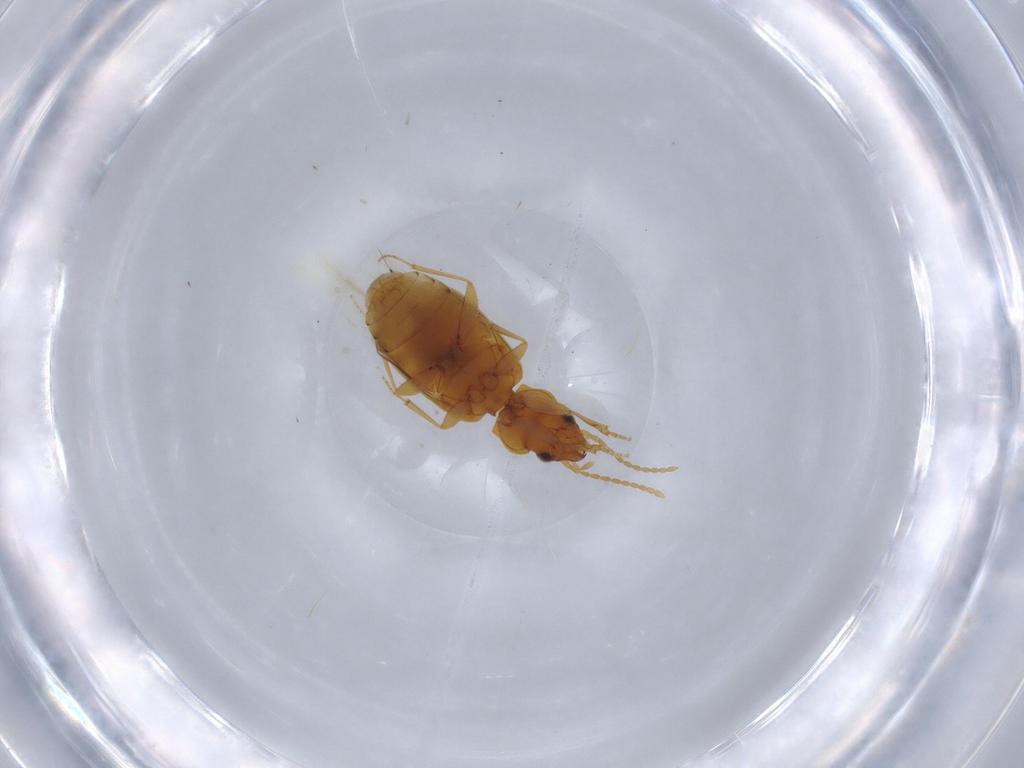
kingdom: Animalia
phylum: Arthropoda
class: Insecta
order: Coleoptera
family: Carabidae
